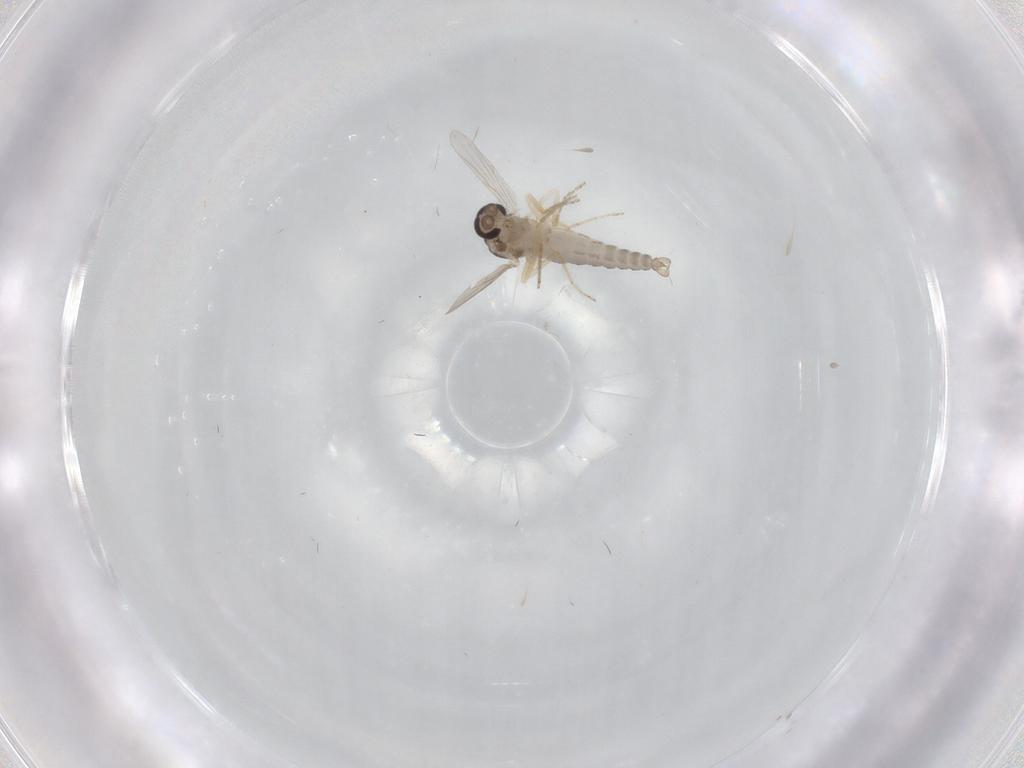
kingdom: Animalia
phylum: Arthropoda
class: Insecta
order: Diptera
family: Ceratopogonidae
